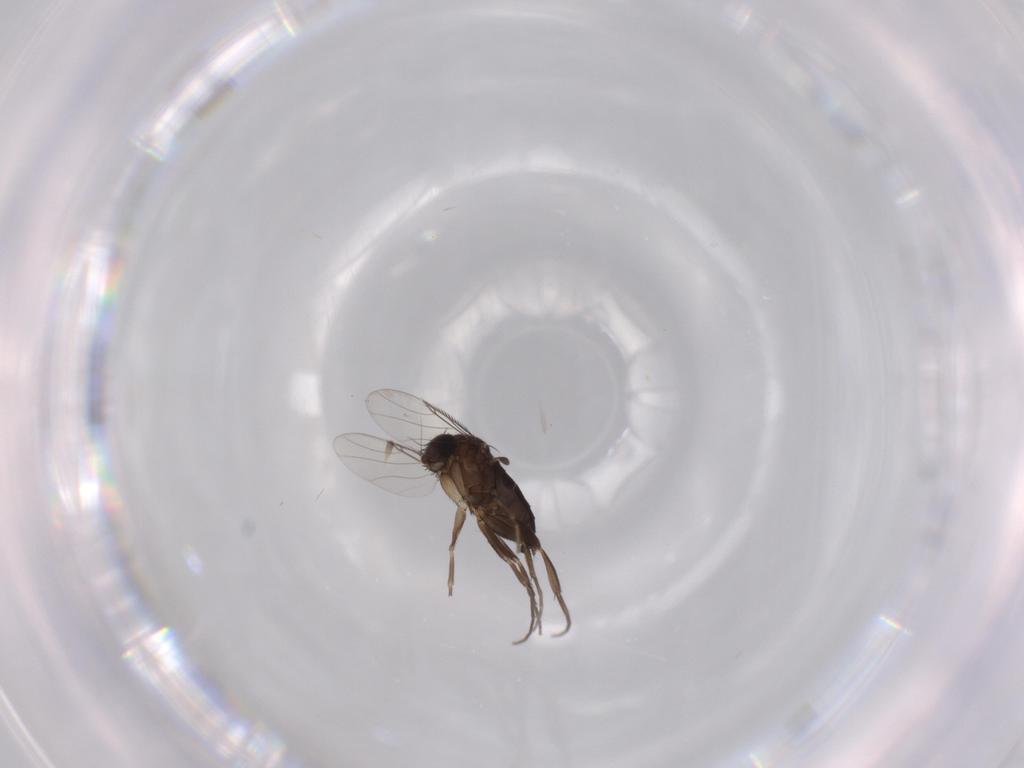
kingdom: Animalia
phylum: Arthropoda
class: Insecta
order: Diptera
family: Phoridae
